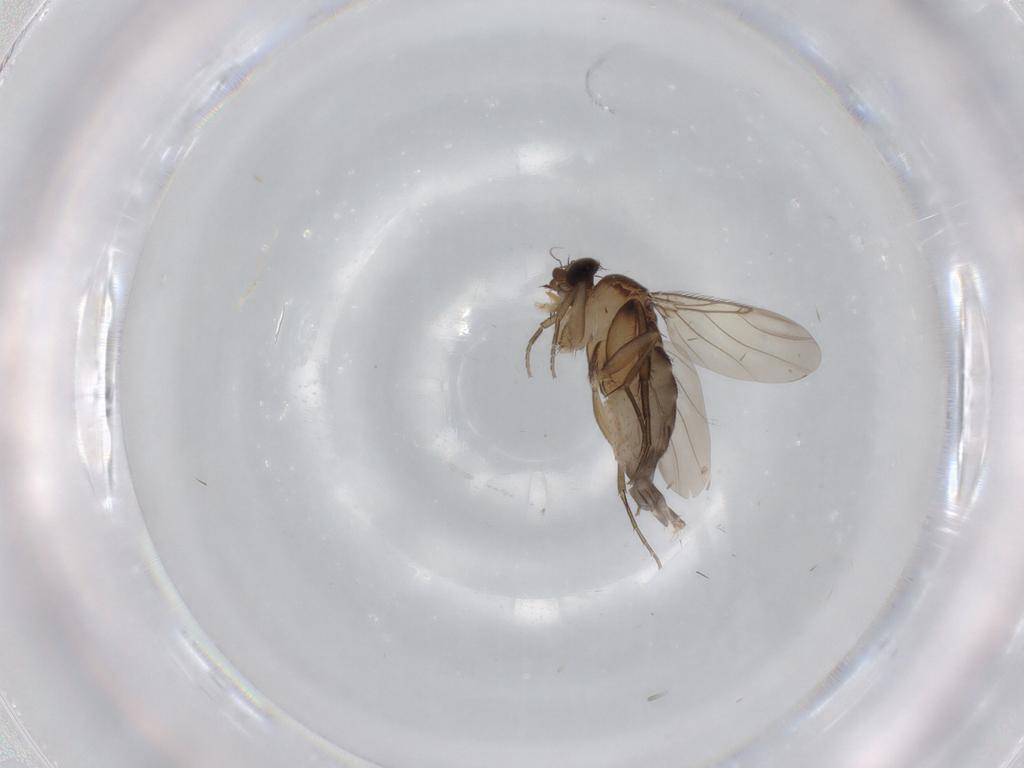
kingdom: Animalia
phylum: Arthropoda
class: Insecta
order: Diptera
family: Phoridae
